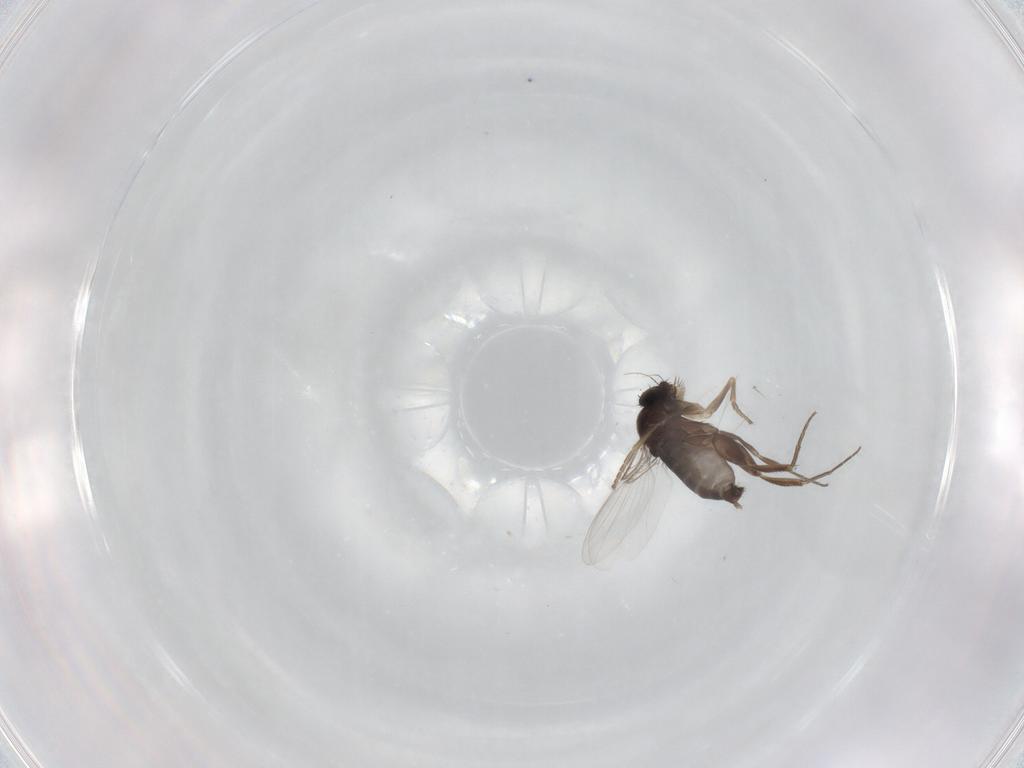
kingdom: Animalia
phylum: Arthropoda
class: Insecta
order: Diptera
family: Phoridae
